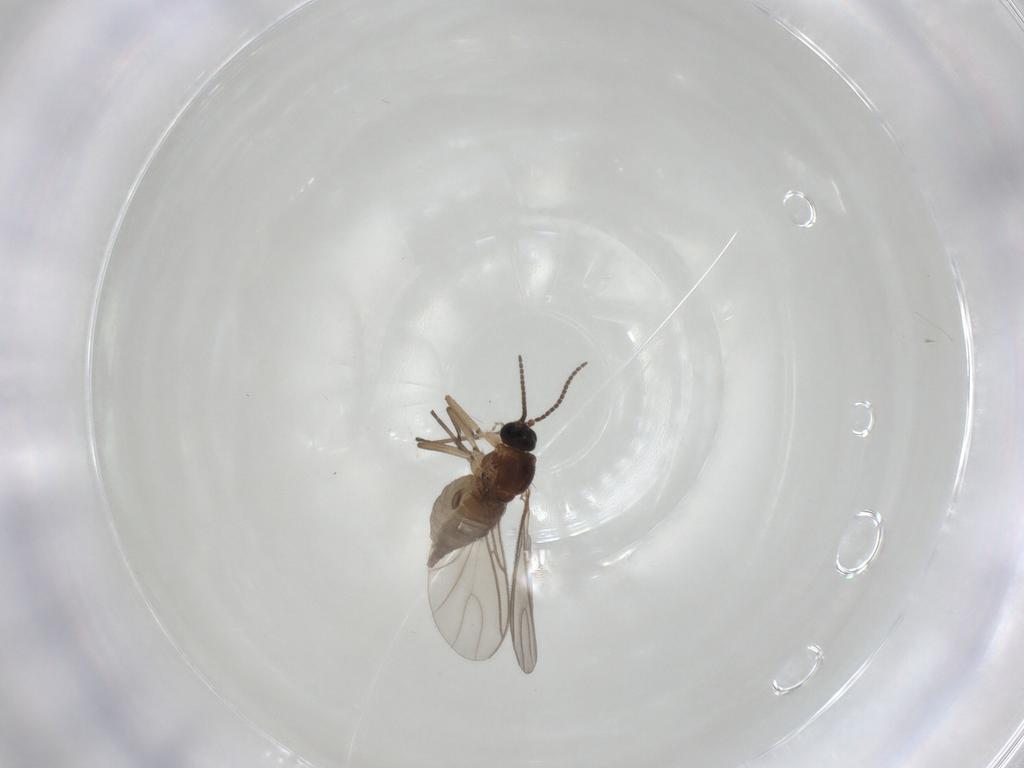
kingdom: Animalia
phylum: Arthropoda
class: Insecta
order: Diptera
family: Sciaridae
